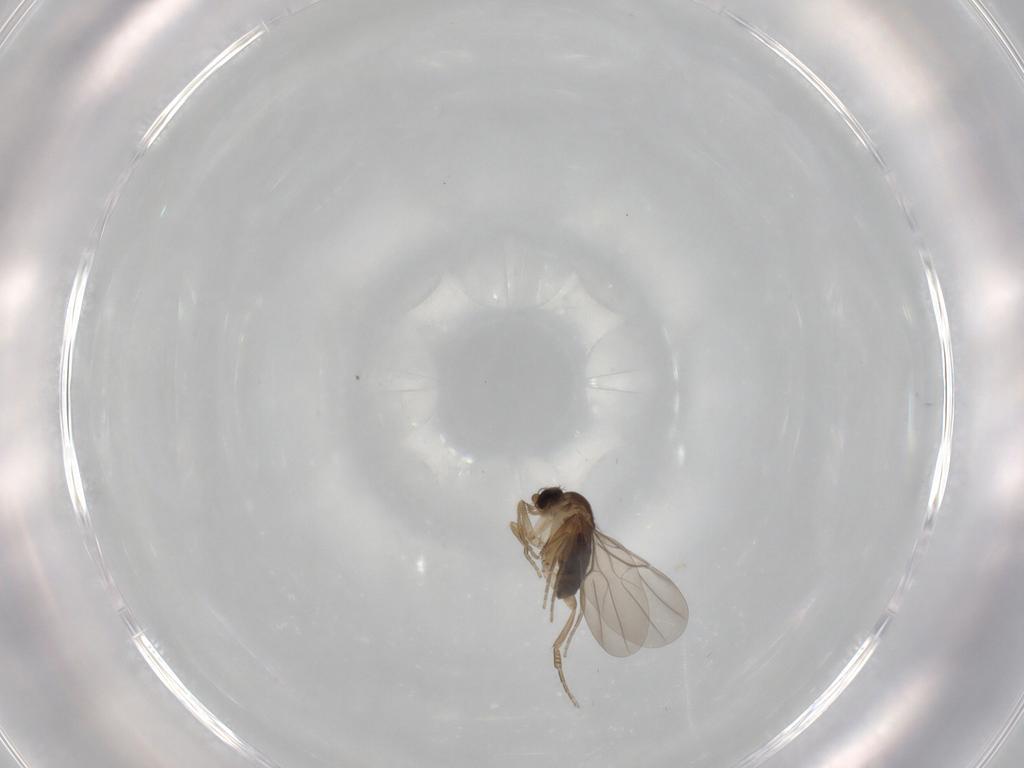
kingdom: Animalia
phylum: Arthropoda
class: Insecta
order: Diptera
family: Phoridae
